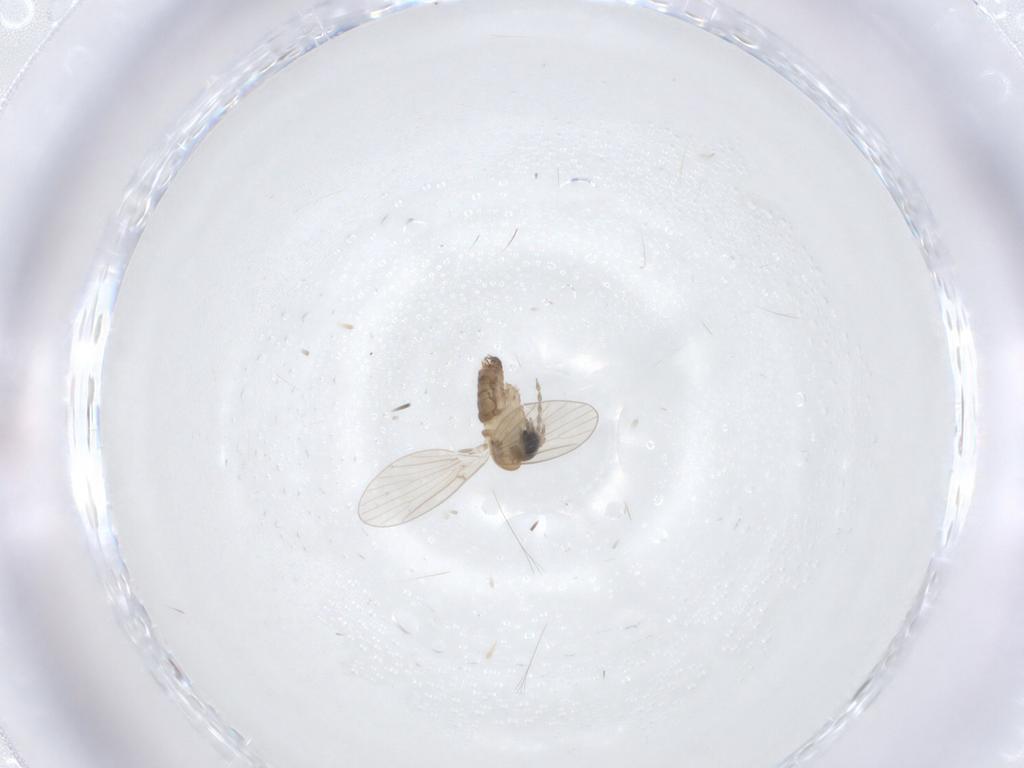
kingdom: Animalia
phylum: Arthropoda
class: Insecta
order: Diptera
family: Psychodidae
